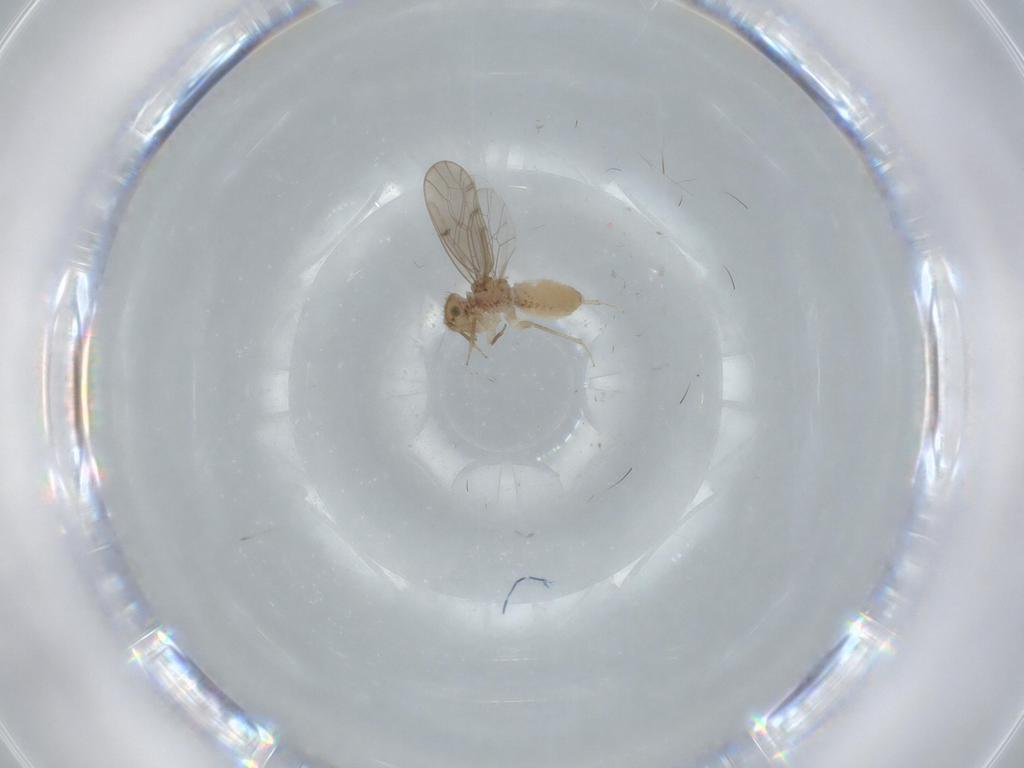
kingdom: Animalia
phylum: Arthropoda
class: Insecta
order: Psocodea
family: Ectopsocidae
